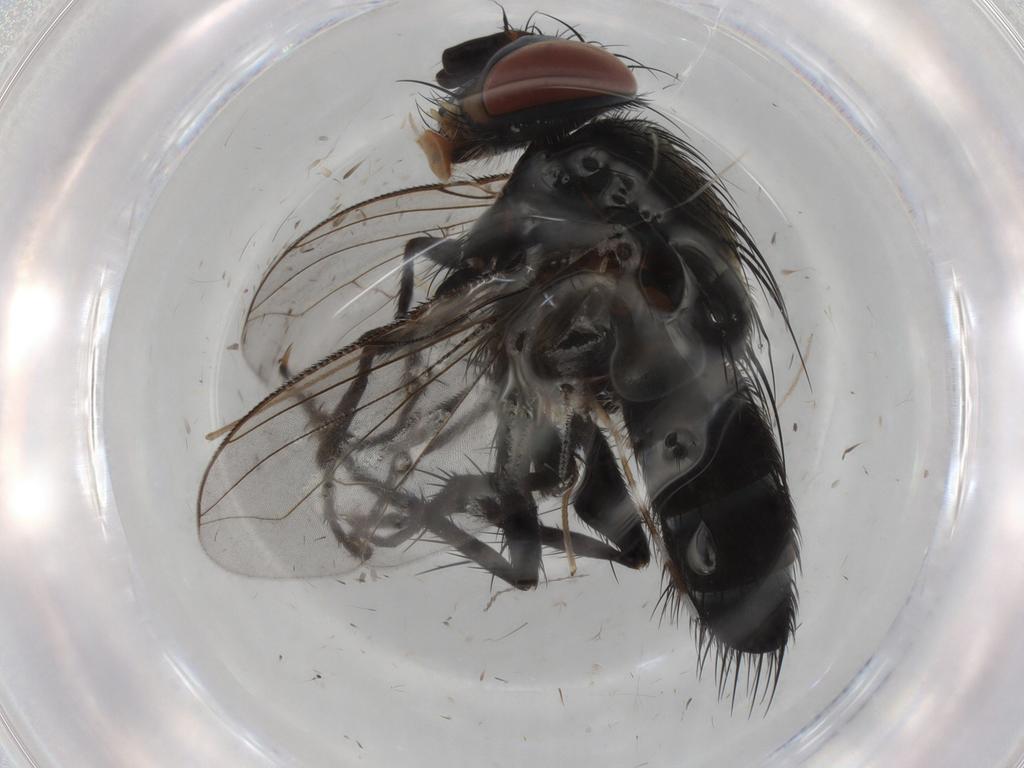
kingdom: Animalia
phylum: Arthropoda
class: Insecta
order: Diptera
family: Tachinidae
